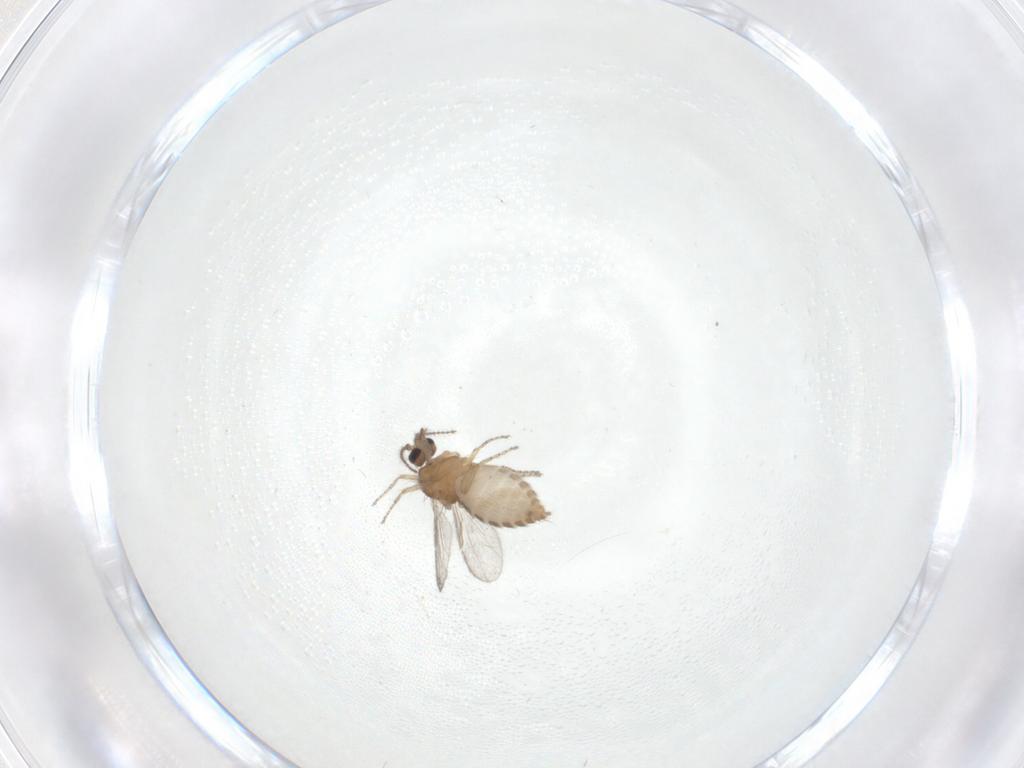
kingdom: Animalia
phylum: Arthropoda
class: Insecta
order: Diptera
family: Ceratopogonidae
